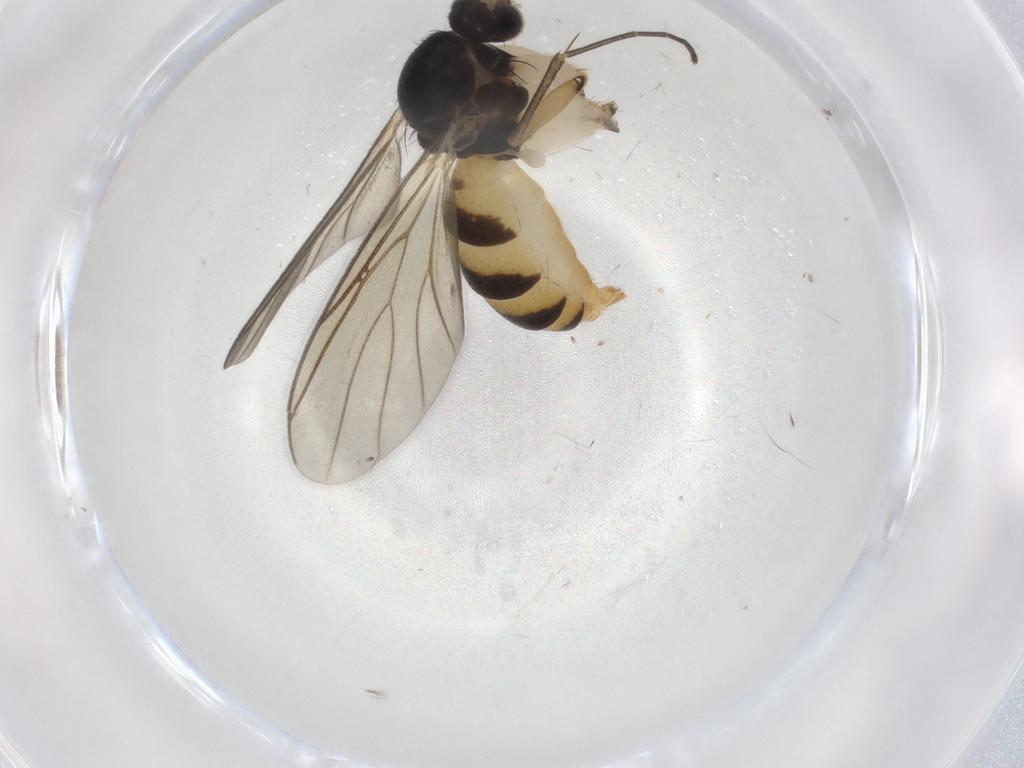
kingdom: Animalia
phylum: Arthropoda
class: Insecta
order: Diptera
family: Mycetophilidae
